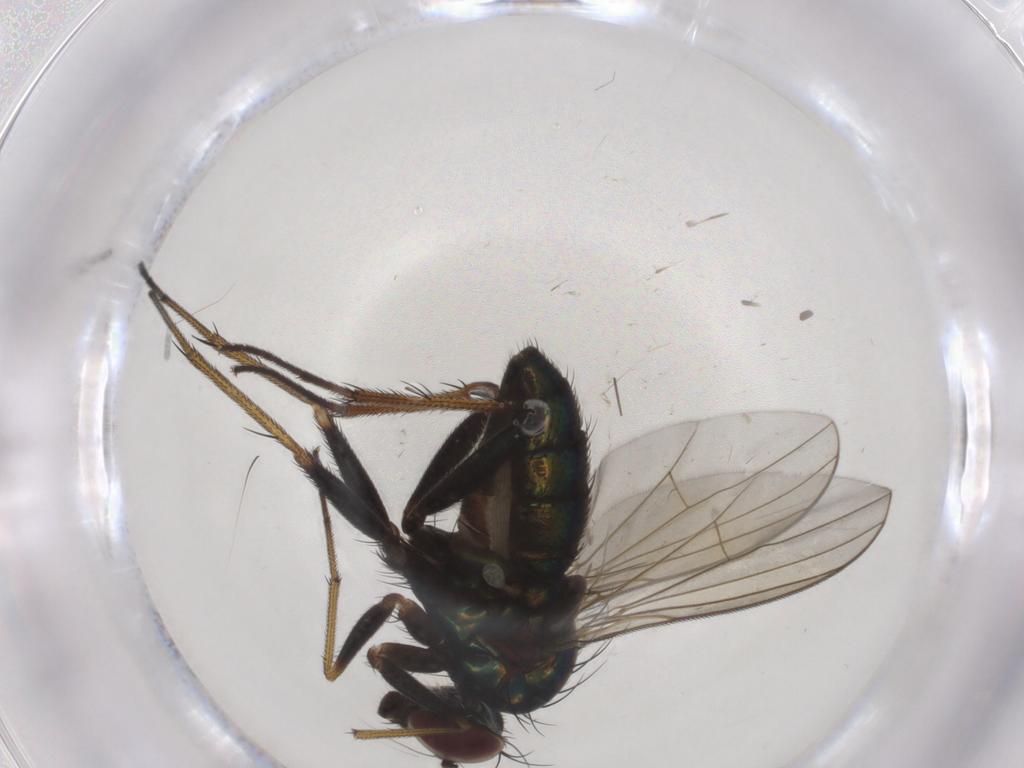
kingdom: Animalia
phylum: Arthropoda
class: Insecta
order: Diptera
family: Dolichopodidae
